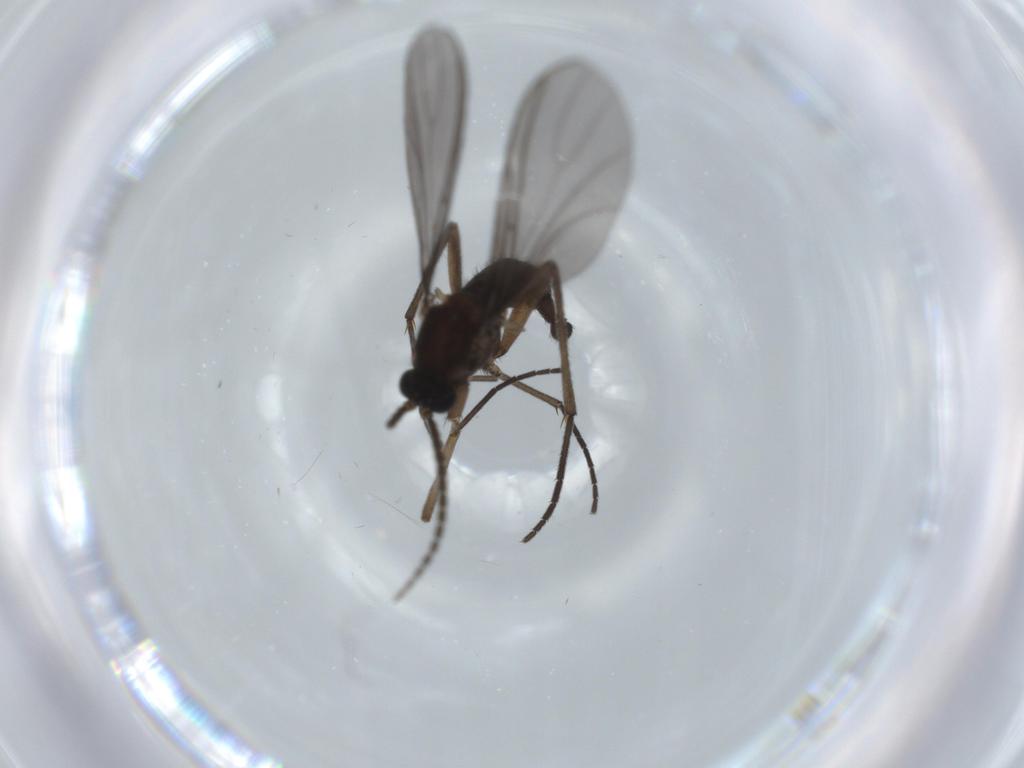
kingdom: Animalia
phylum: Arthropoda
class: Insecta
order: Diptera
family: Sciaridae
